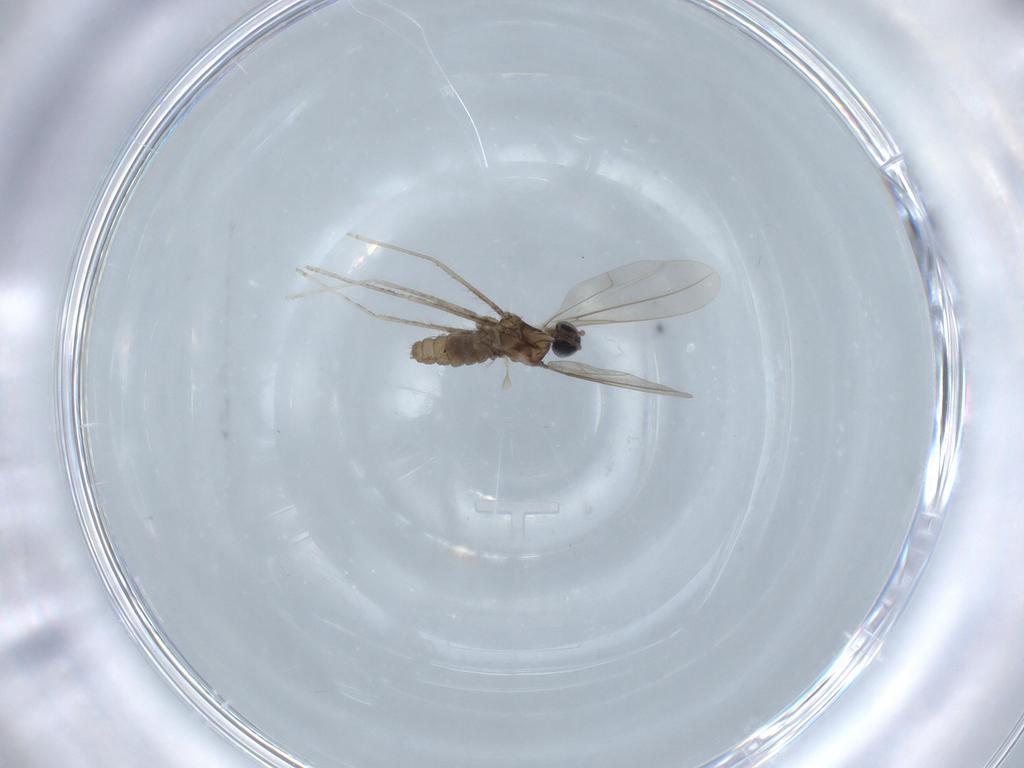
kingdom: Animalia
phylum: Arthropoda
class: Insecta
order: Diptera
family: Cecidomyiidae
